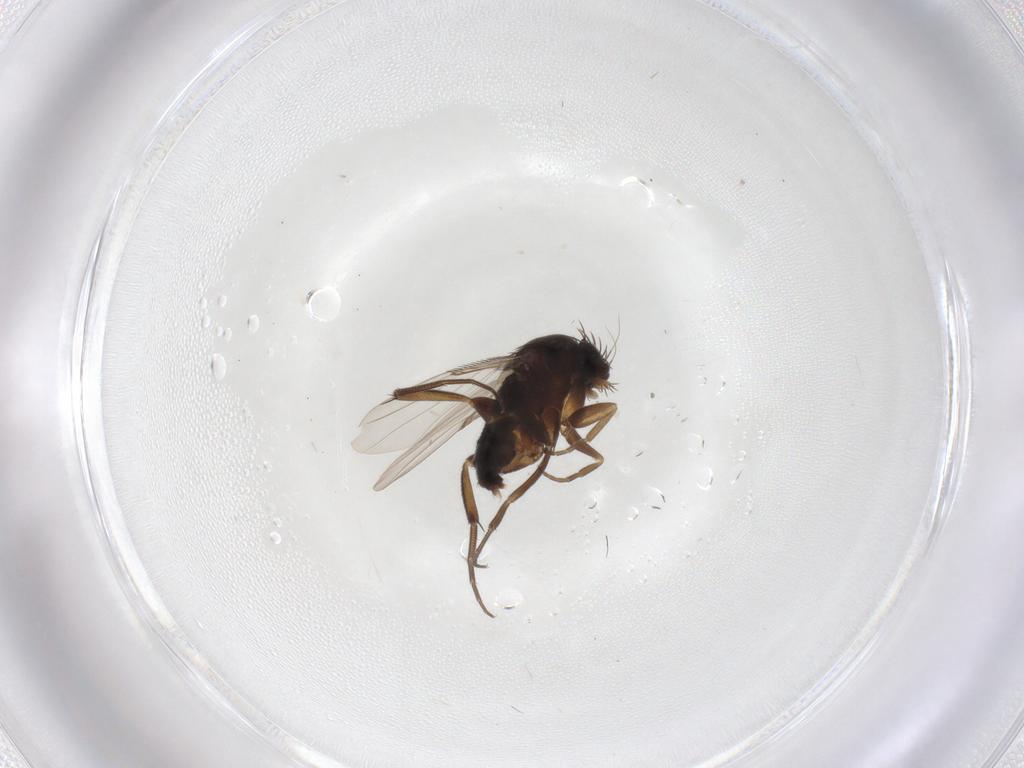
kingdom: Animalia
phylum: Arthropoda
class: Insecta
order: Diptera
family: Phoridae
